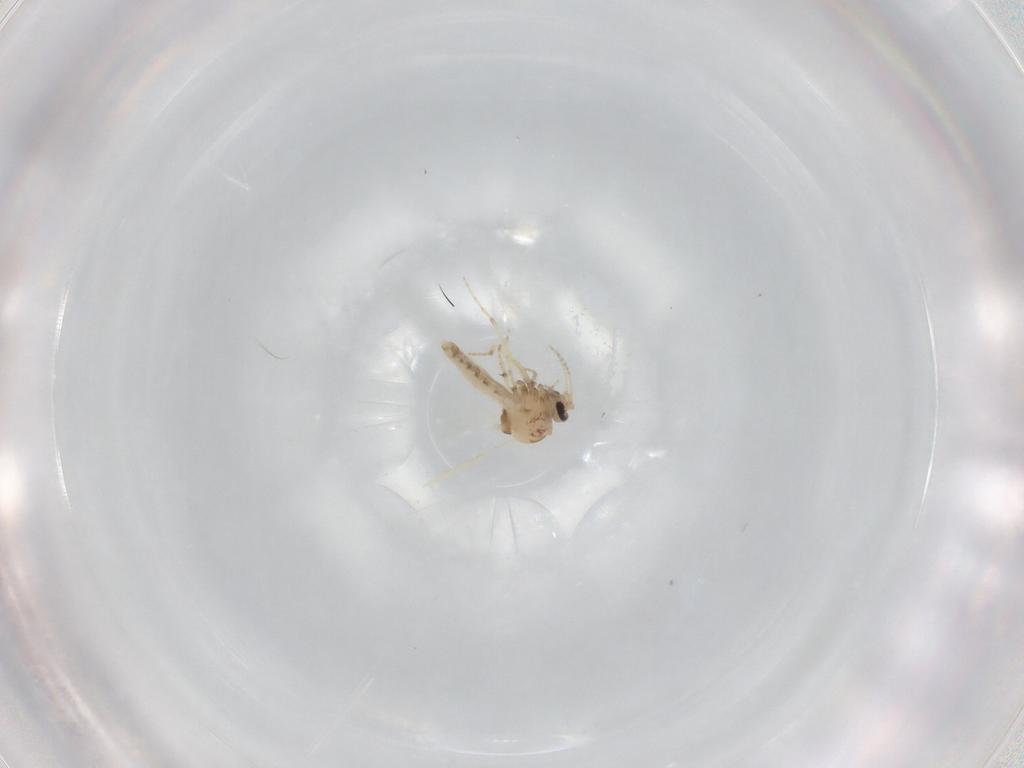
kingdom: Animalia
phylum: Arthropoda
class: Insecta
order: Diptera
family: Ceratopogonidae
